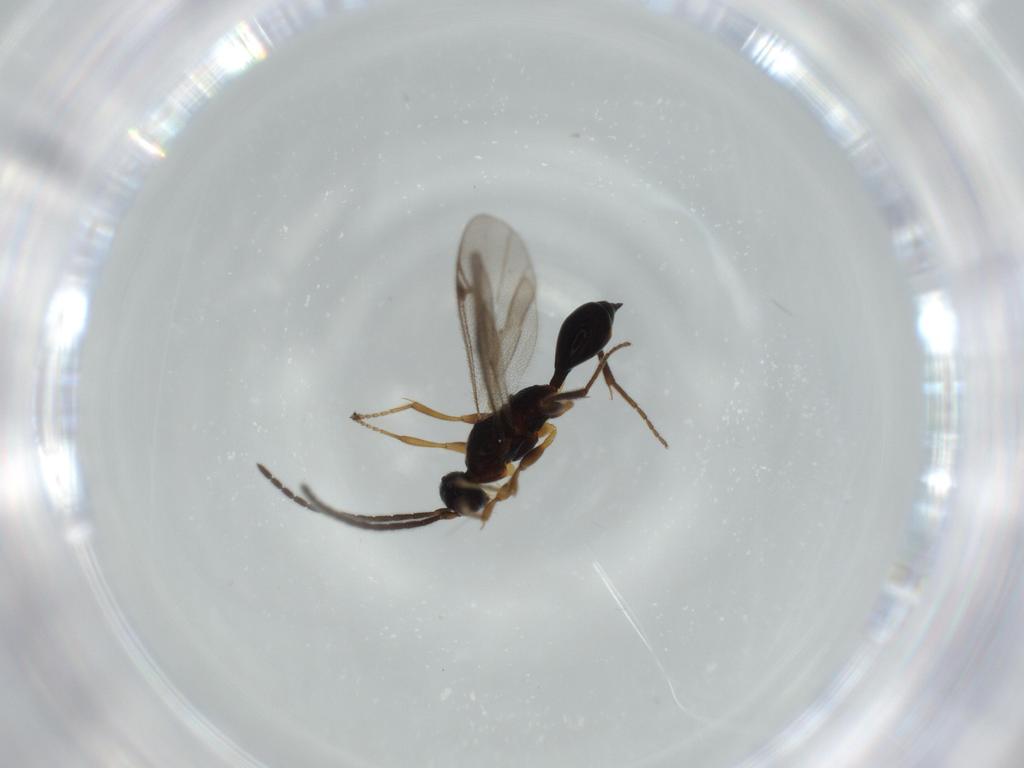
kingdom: Animalia
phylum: Arthropoda
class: Insecta
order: Hymenoptera
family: Proctotrupidae
